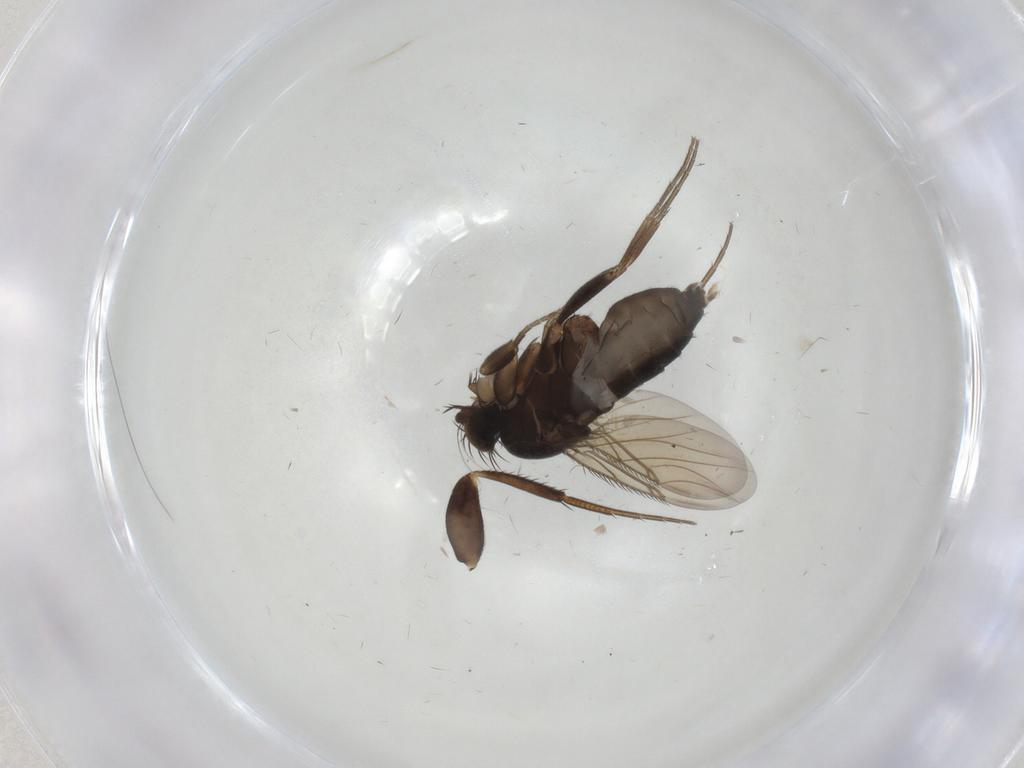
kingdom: Animalia
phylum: Arthropoda
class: Insecta
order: Diptera
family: Phoridae
